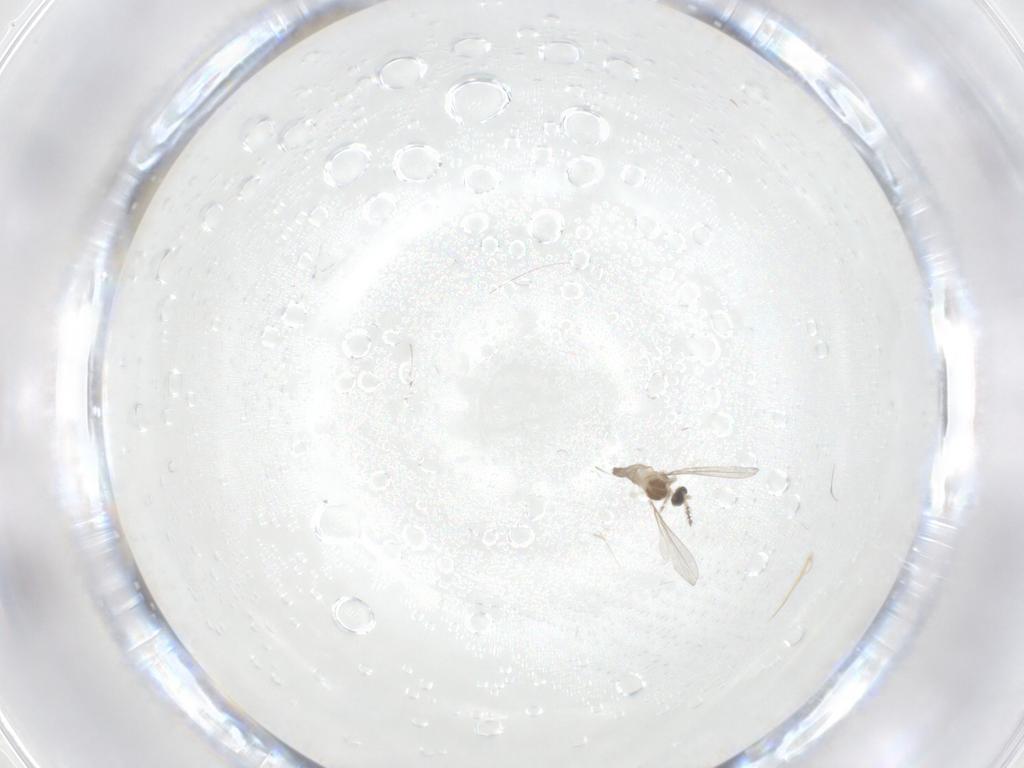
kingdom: Animalia
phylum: Arthropoda
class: Insecta
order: Diptera
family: Cecidomyiidae
